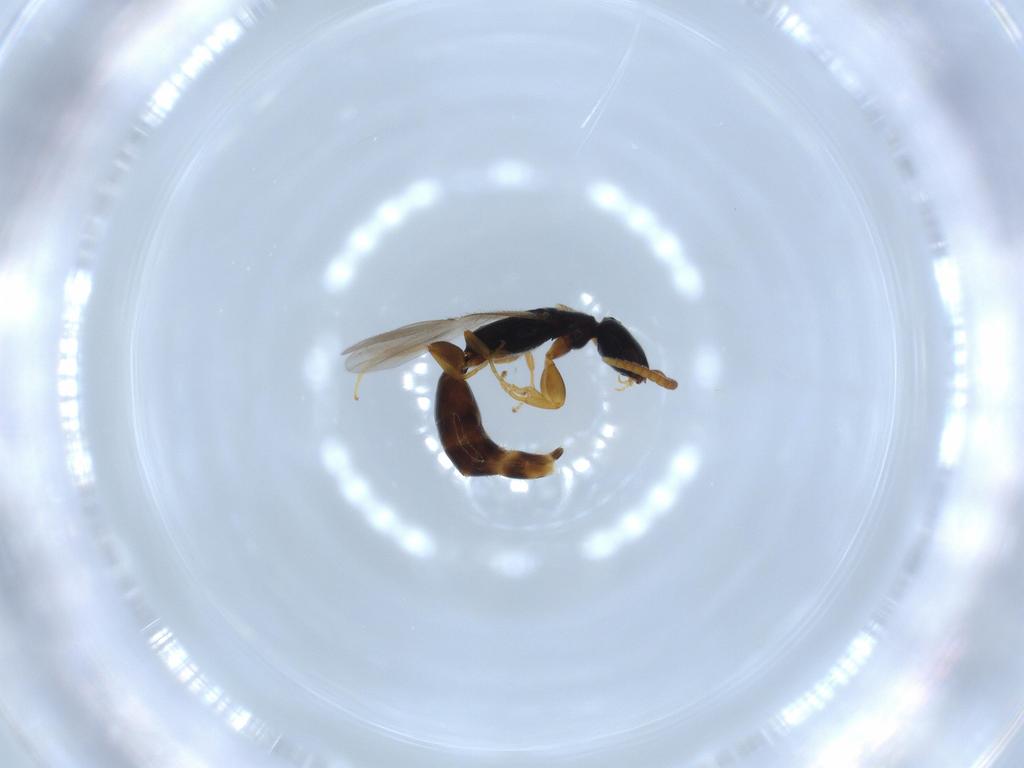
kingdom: Animalia
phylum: Arthropoda
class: Insecta
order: Hymenoptera
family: Bethylidae
